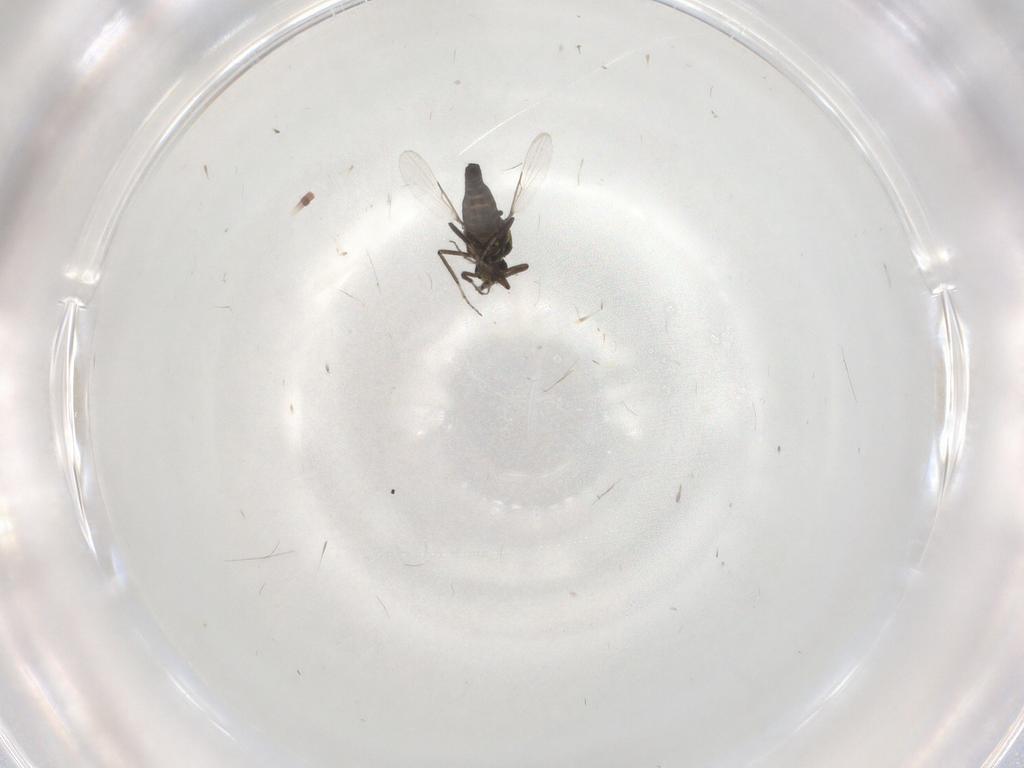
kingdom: Animalia
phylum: Arthropoda
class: Insecta
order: Diptera
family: Ceratopogonidae
